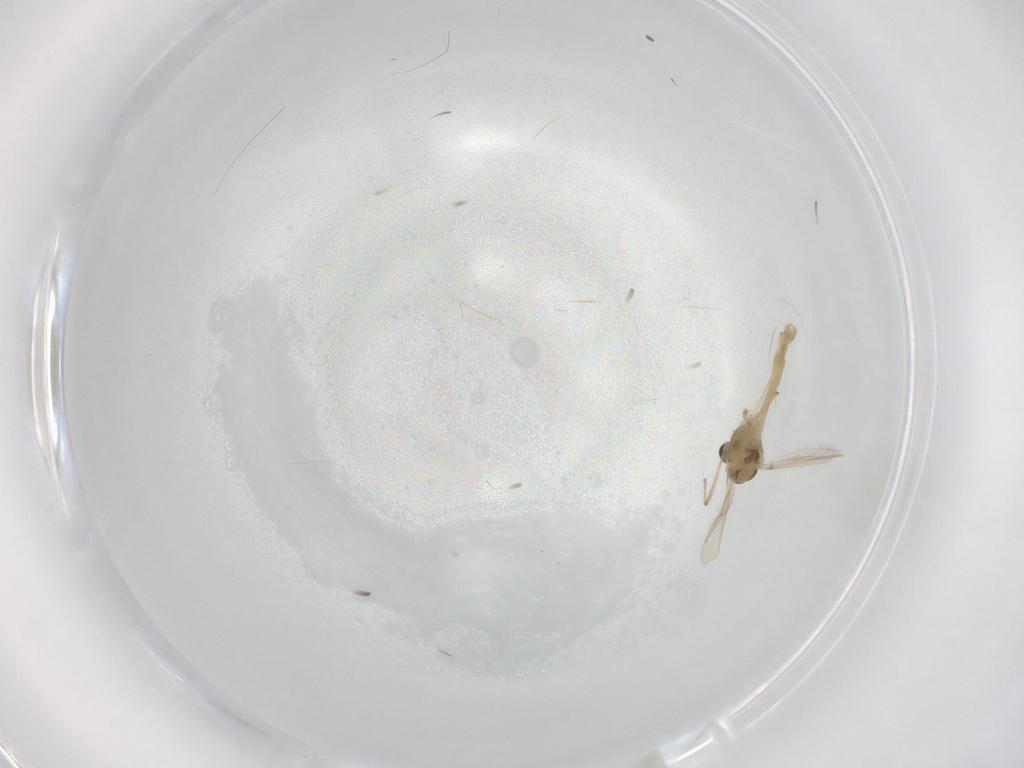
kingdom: Animalia
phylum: Arthropoda
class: Insecta
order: Diptera
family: Chironomidae
